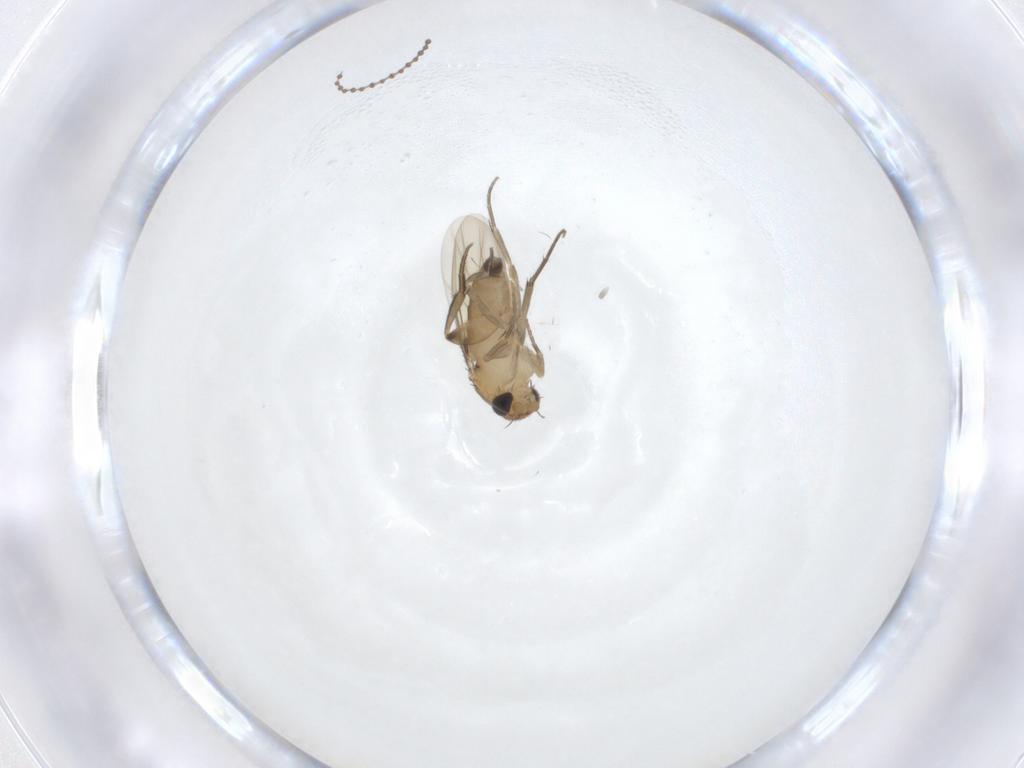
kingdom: Animalia
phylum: Arthropoda
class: Insecta
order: Diptera
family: Phoridae
